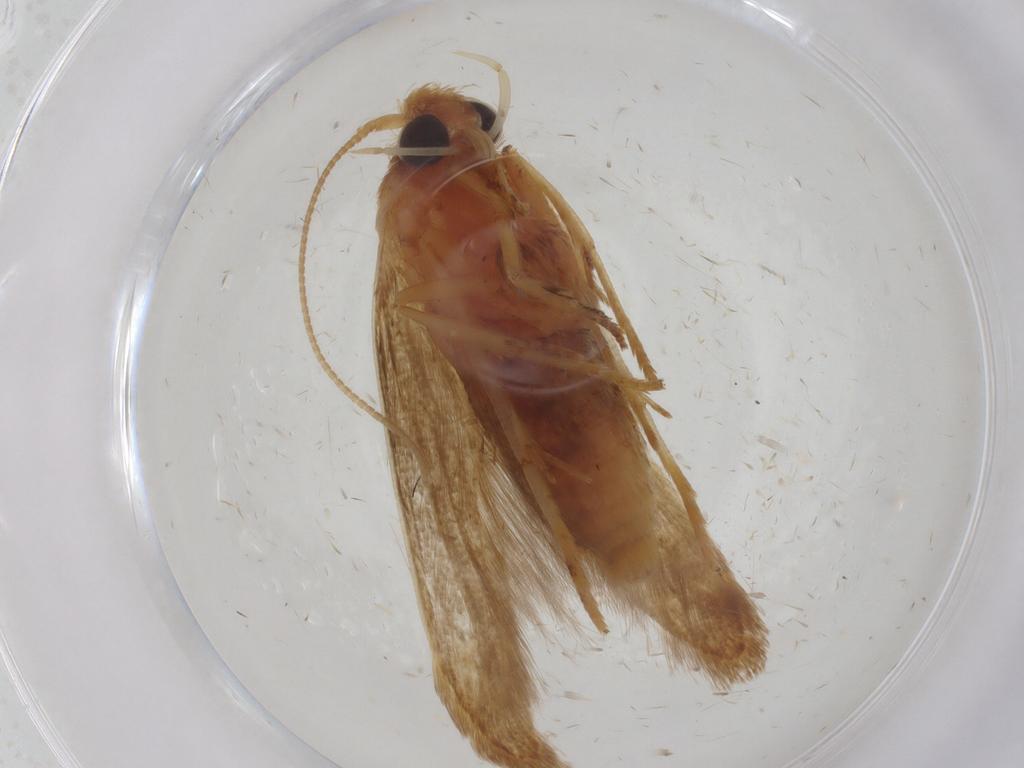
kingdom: Animalia
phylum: Arthropoda
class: Insecta
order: Lepidoptera
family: Blastobasidae
